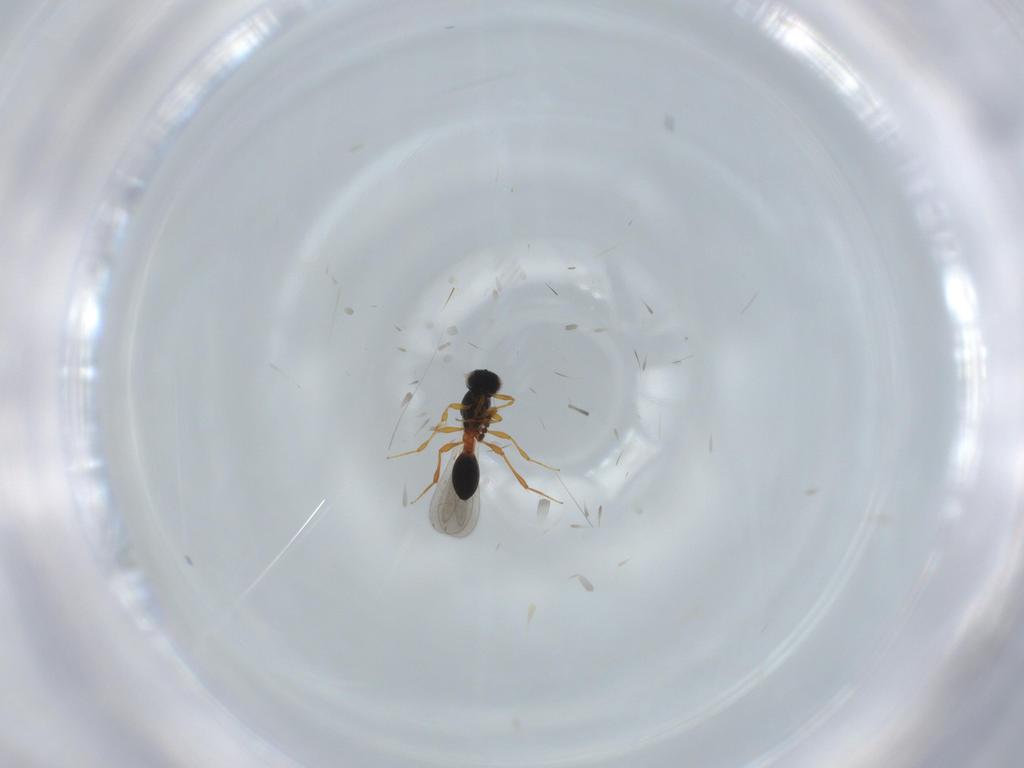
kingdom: Animalia
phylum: Arthropoda
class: Insecta
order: Hymenoptera
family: Platygastridae
